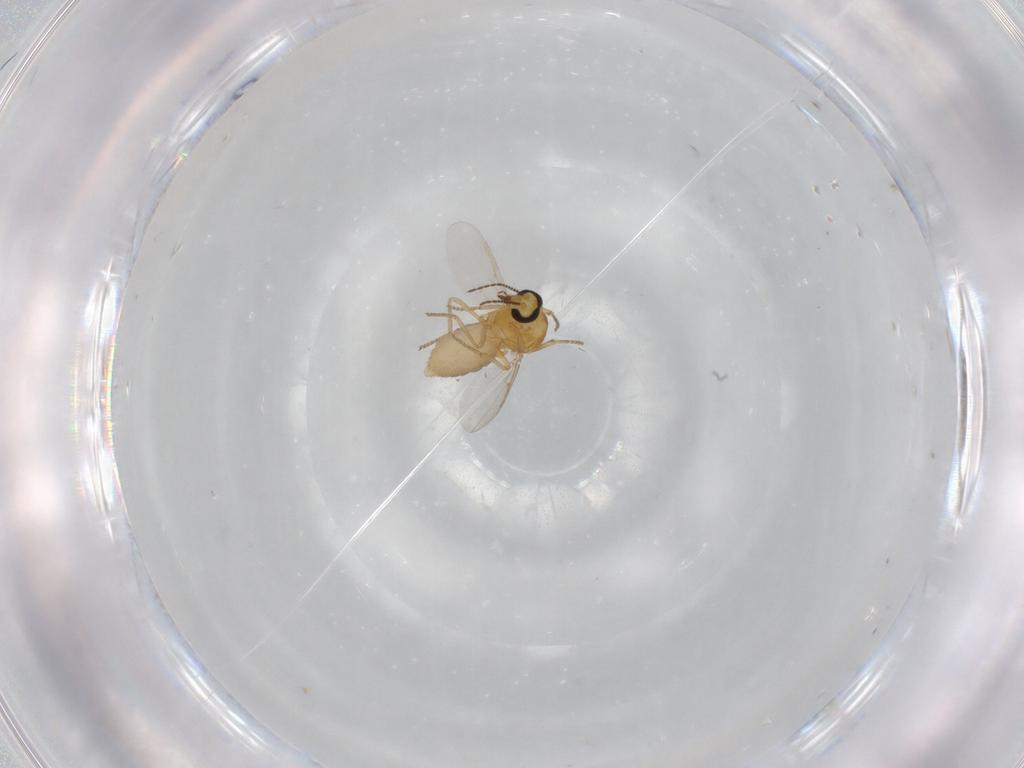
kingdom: Animalia
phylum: Arthropoda
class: Insecta
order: Diptera
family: Ceratopogonidae
